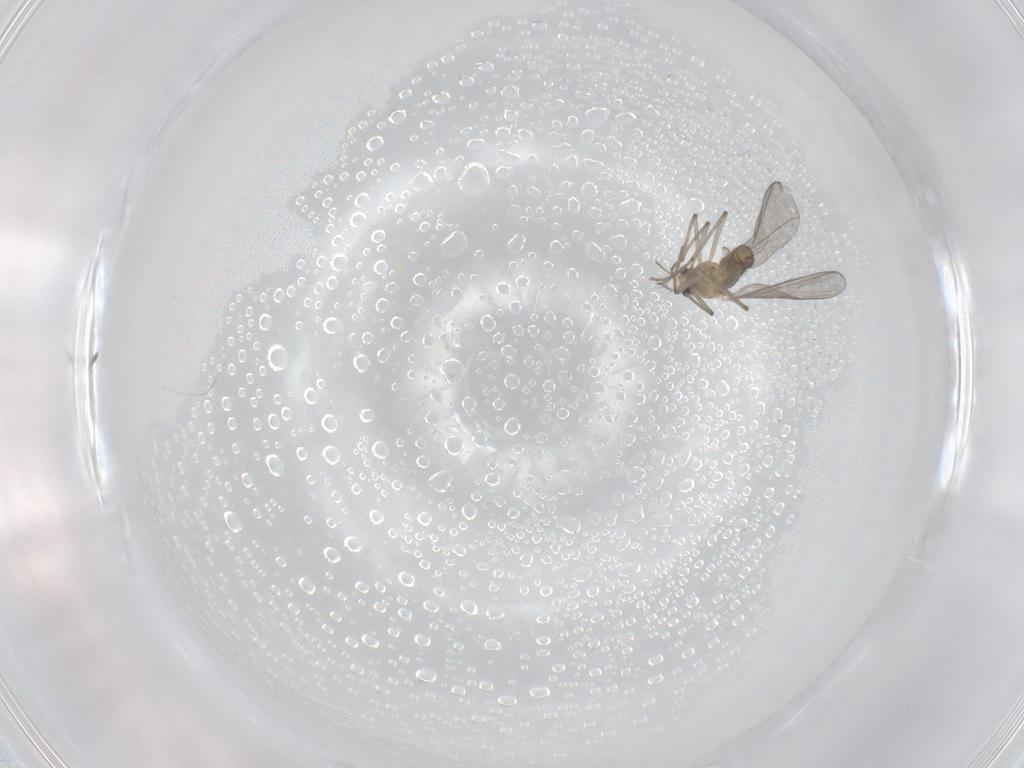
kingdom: Animalia
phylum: Arthropoda
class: Insecta
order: Diptera
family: Chironomidae
